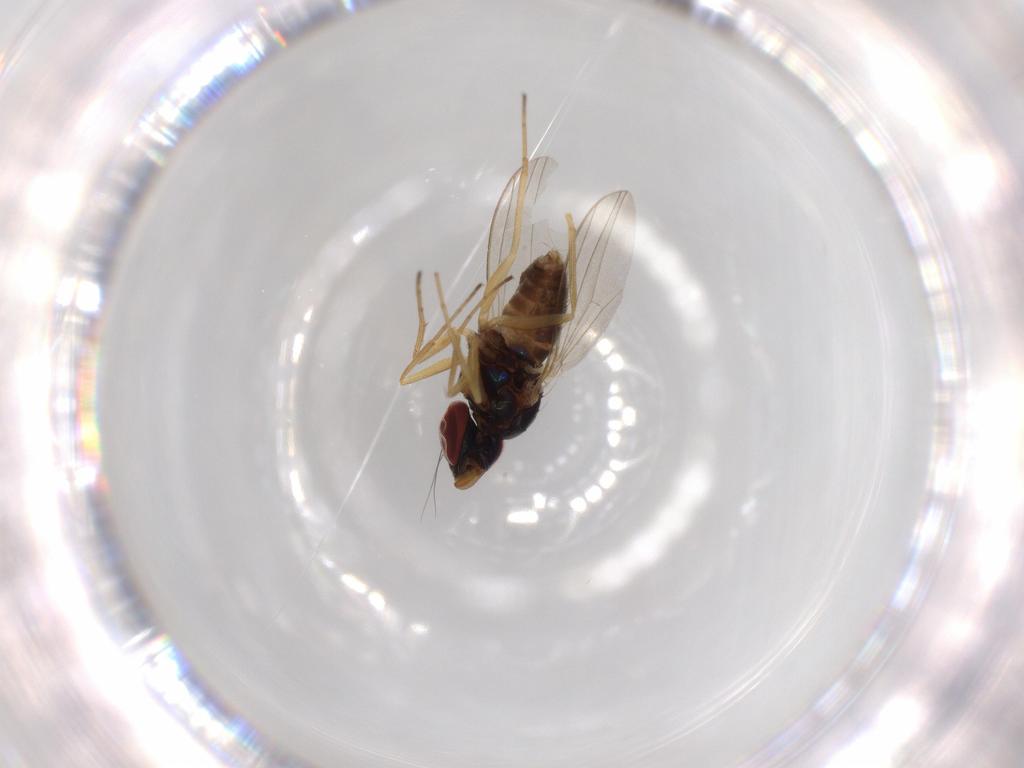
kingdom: Animalia
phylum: Arthropoda
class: Insecta
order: Diptera
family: Dolichopodidae
